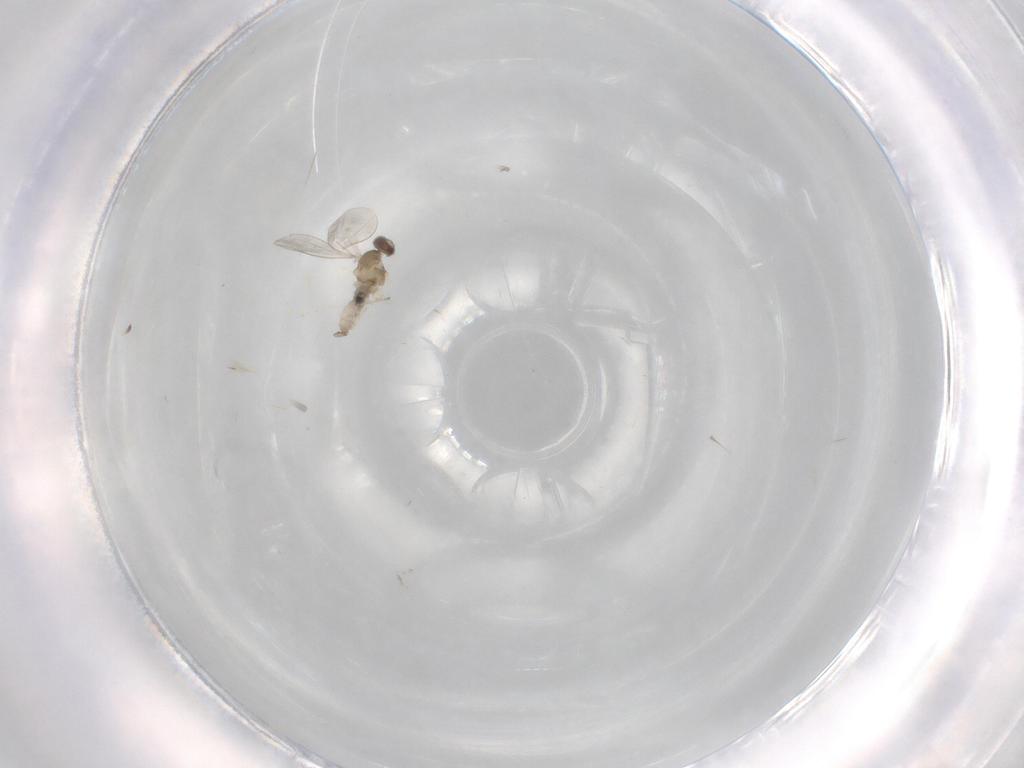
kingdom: Animalia
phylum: Arthropoda
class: Insecta
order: Diptera
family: Cecidomyiidae
